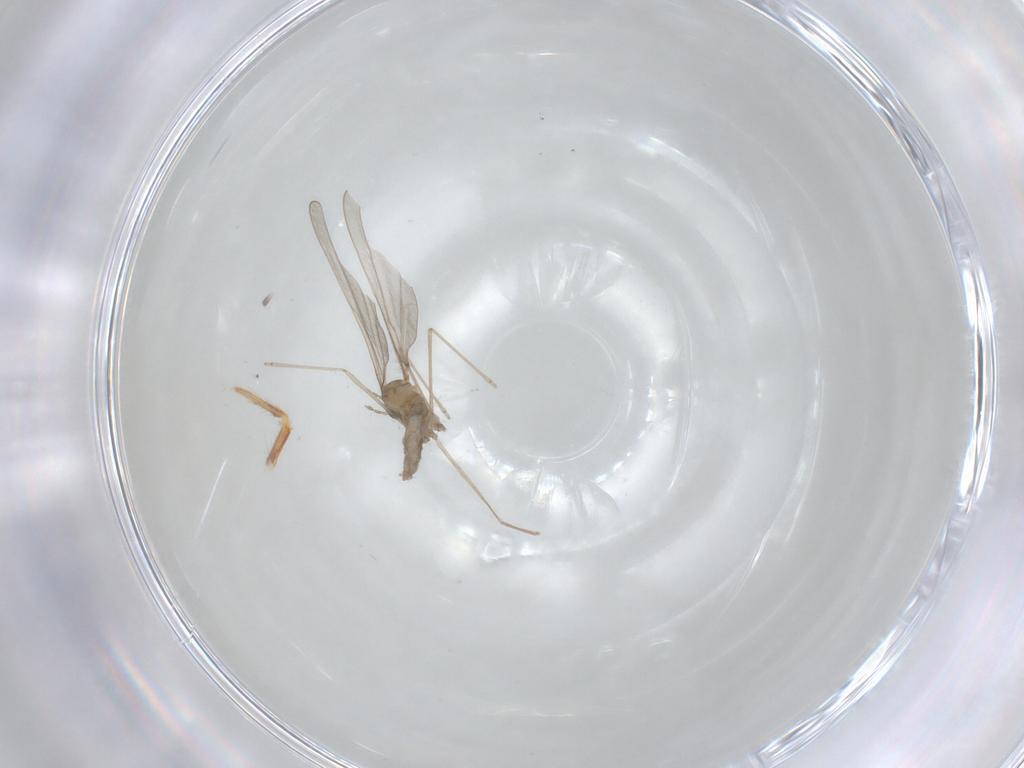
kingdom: Animalia
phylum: Arthropoda
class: Insecta
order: Diptera
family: Cecidomyiidae
